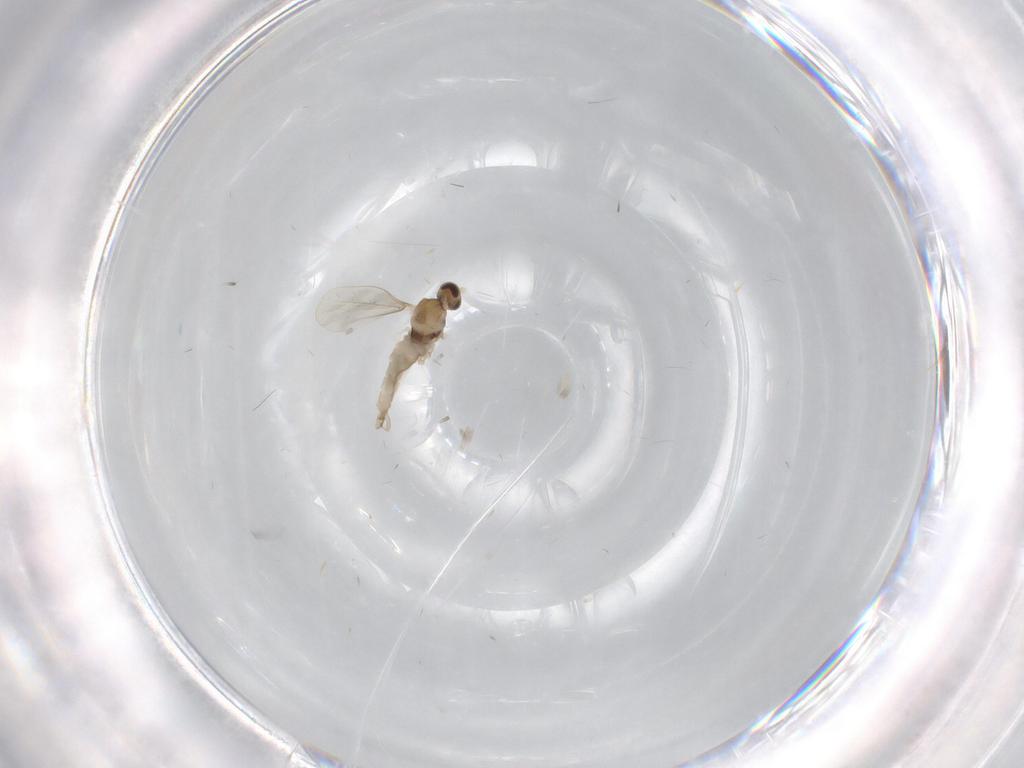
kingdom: Animalia
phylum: Arthropoda
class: Insecta
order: Diptera
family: Cecidomyiidae
